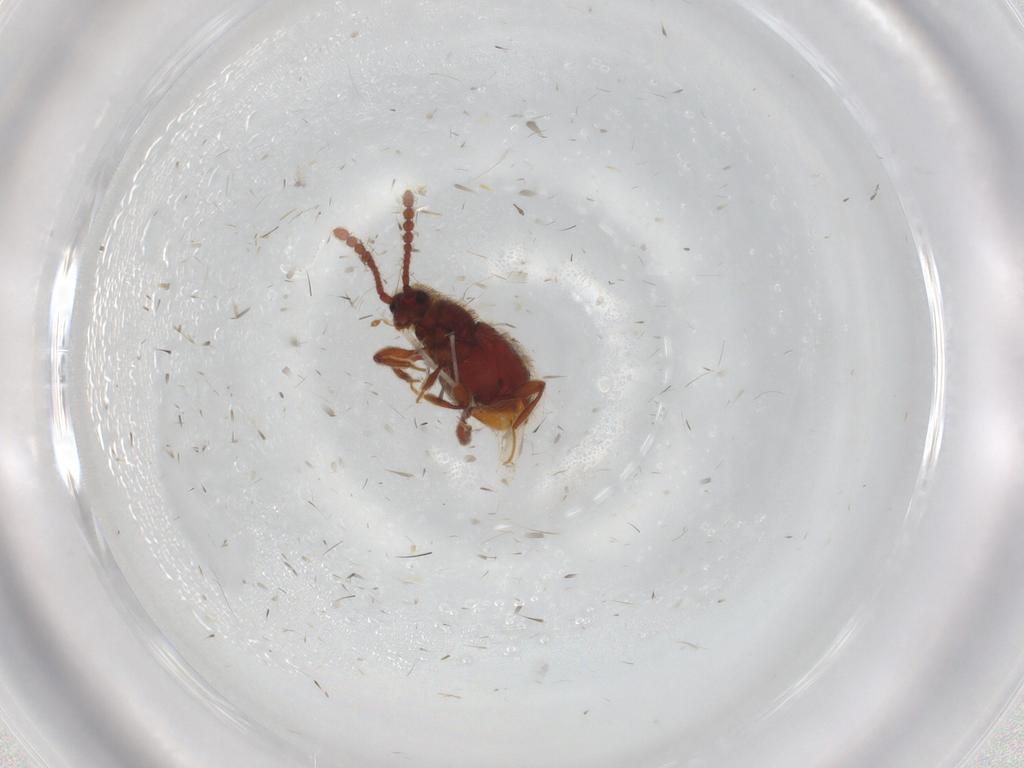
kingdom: Animalia
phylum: Arthropoda
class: Insecta
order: Coleoptera
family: Staphylinidae
